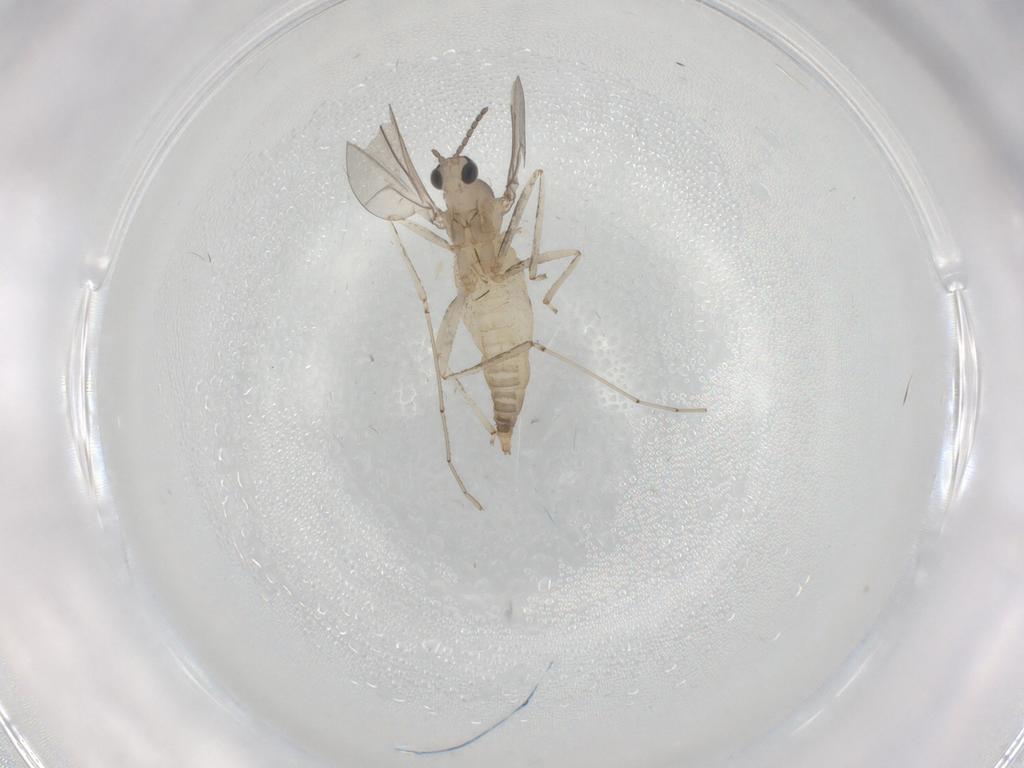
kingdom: Animalia
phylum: Arthropoda
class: Insecta
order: Diptera
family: Cecidomyiidae
